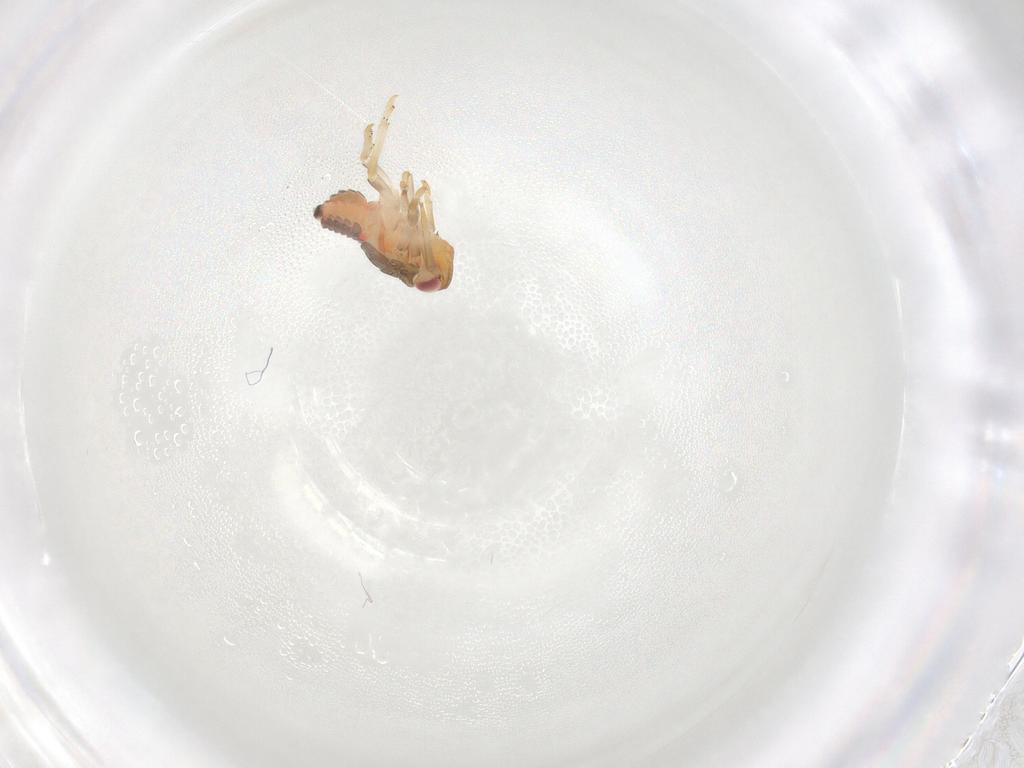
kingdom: Animalia
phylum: Arthropoda
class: Insecta
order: Hemiptera
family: Issidae
